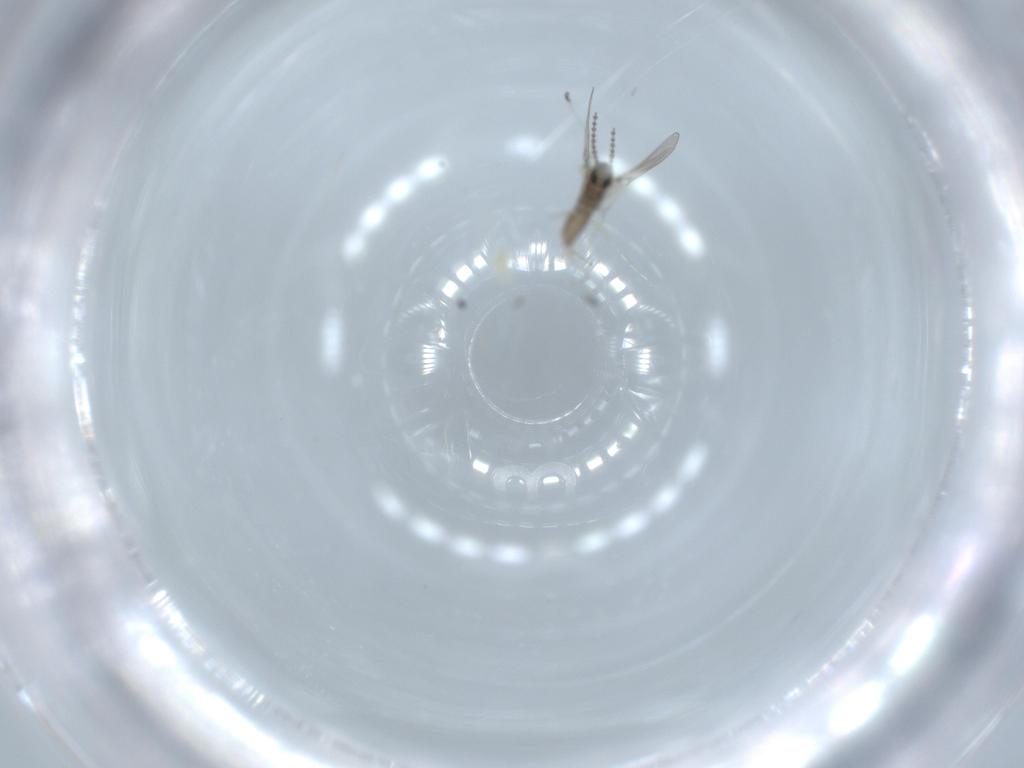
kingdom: Animalia
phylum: Arthropoda
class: Insecta
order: Diptera
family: Cecidomyiidae
